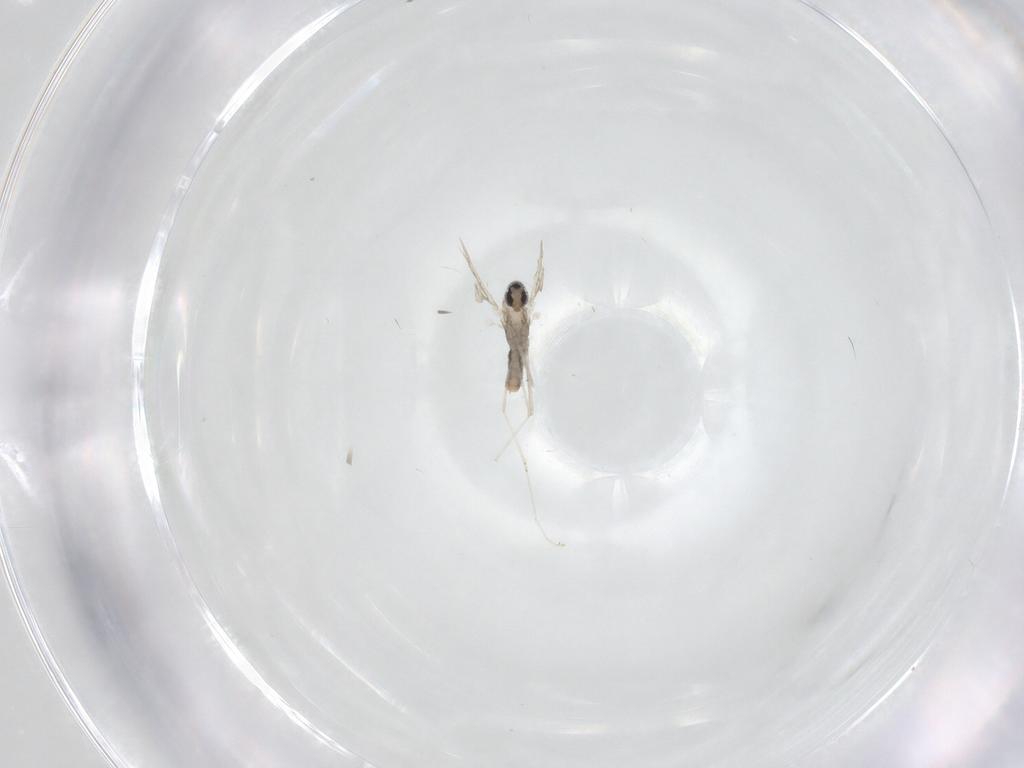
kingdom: Animalia
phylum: Arthropoda
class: Insecta
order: Diptera
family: Cecidomyiidae
